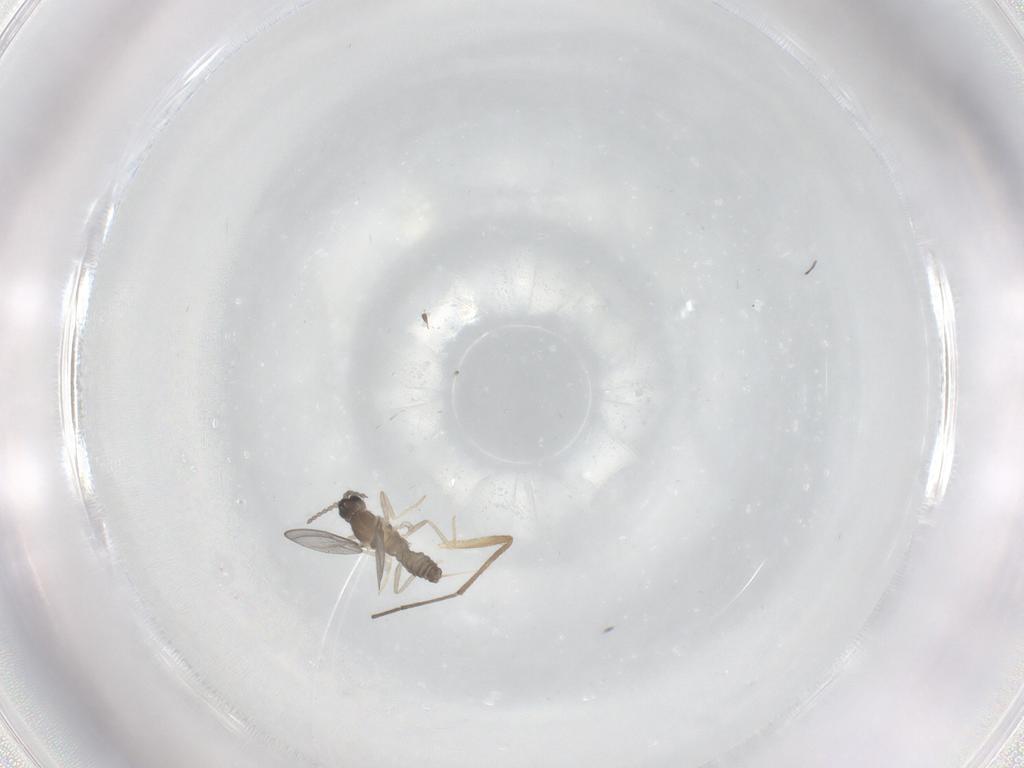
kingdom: Animalia
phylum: Arthropoda
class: Insecta
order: Diptera
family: Cecidomyiidae
